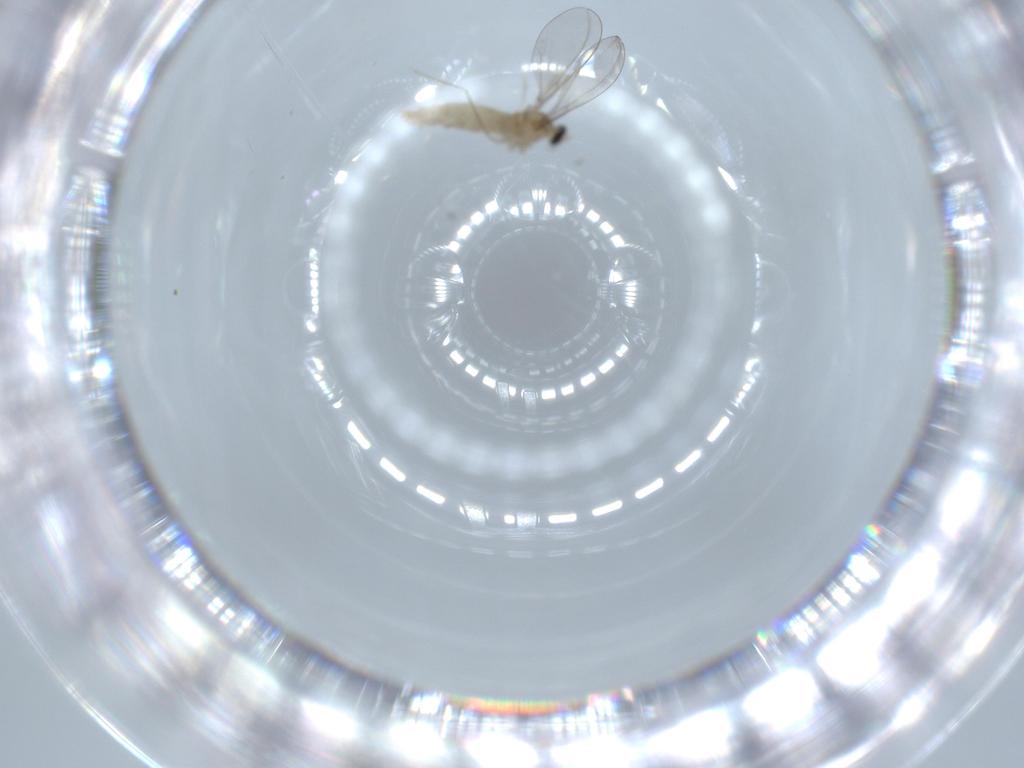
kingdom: Animalia
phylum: Arthropoda
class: Insecta
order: Diptera
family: Cecidomyiidae
